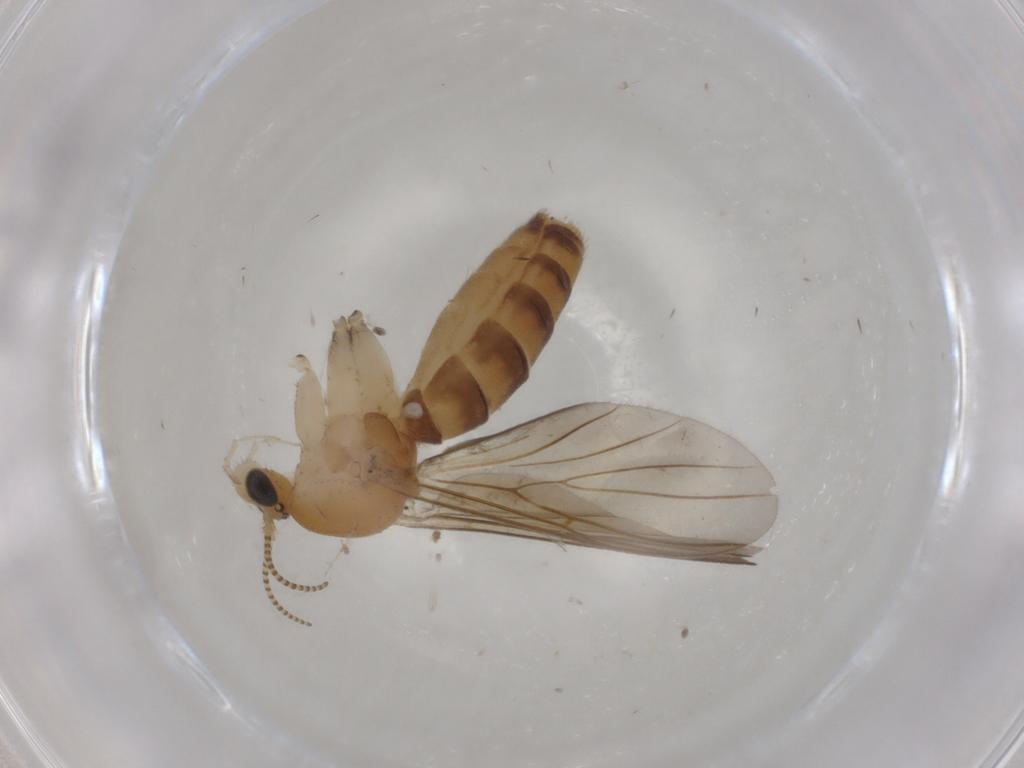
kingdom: Animalia
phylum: Arthropoda
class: Insecta
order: Diptera
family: Mycetophilidae
